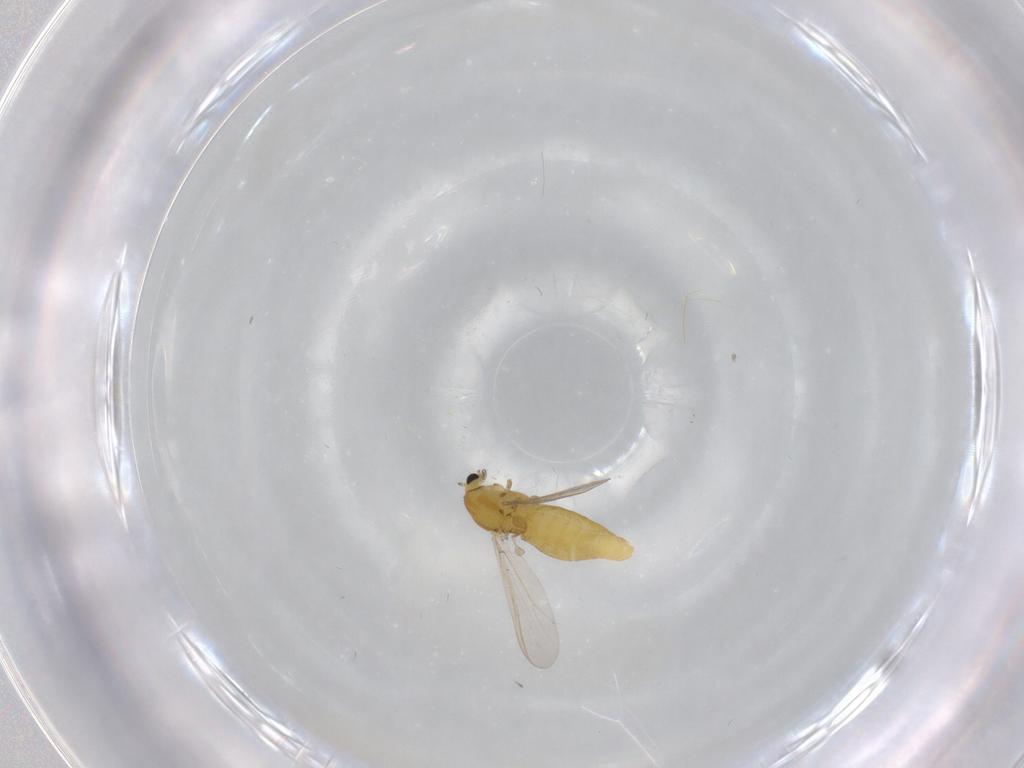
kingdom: Animalia
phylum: Arthropoda
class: Insecta
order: Diptera
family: Chironomidae
